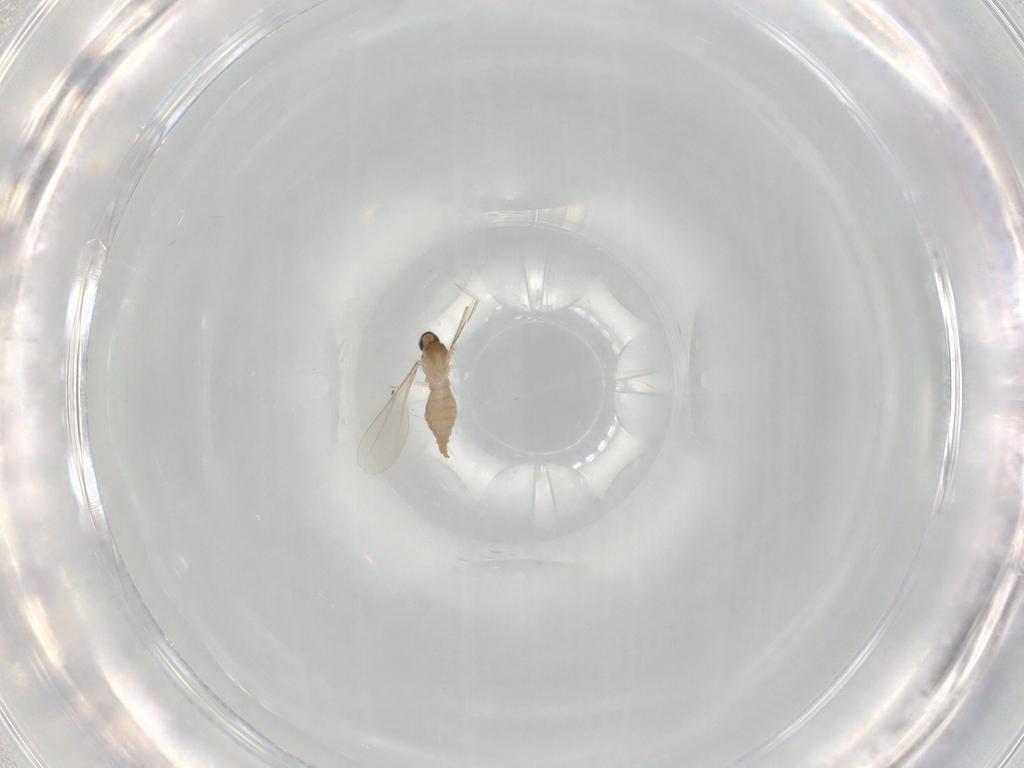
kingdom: Animalia
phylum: Arthropoda
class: Insecta
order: Diptera
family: Cecidomyiidae
